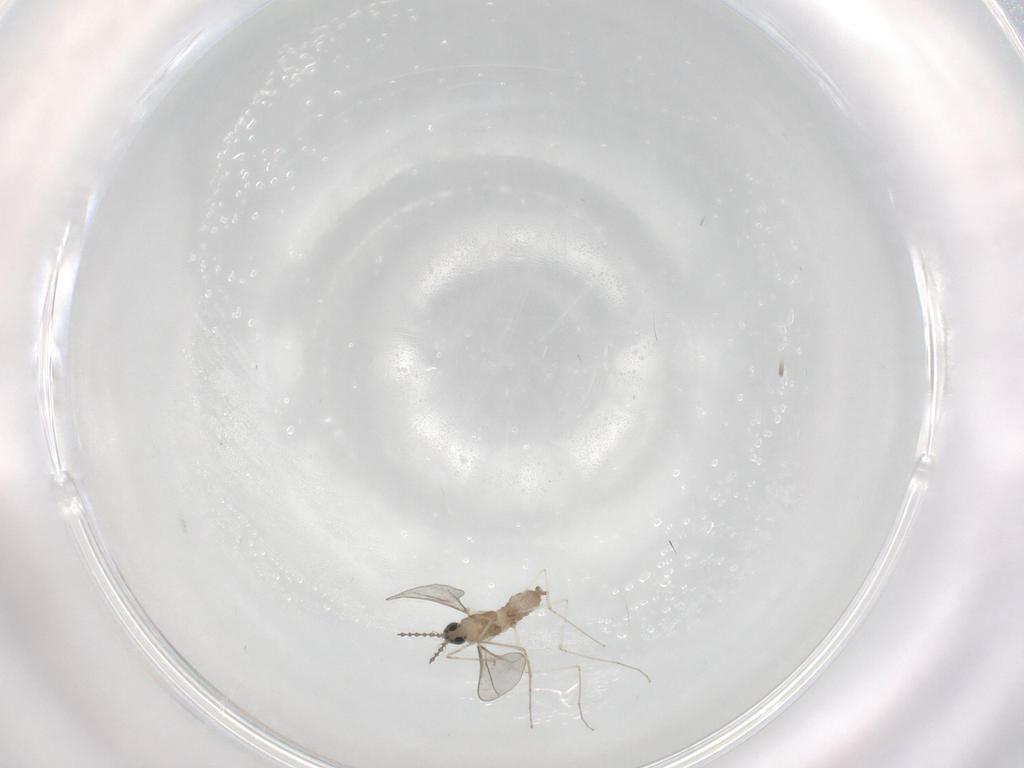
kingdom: Animalia
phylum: Arthropoda
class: Insecta
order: Diptera
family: Cecidomyiidae
